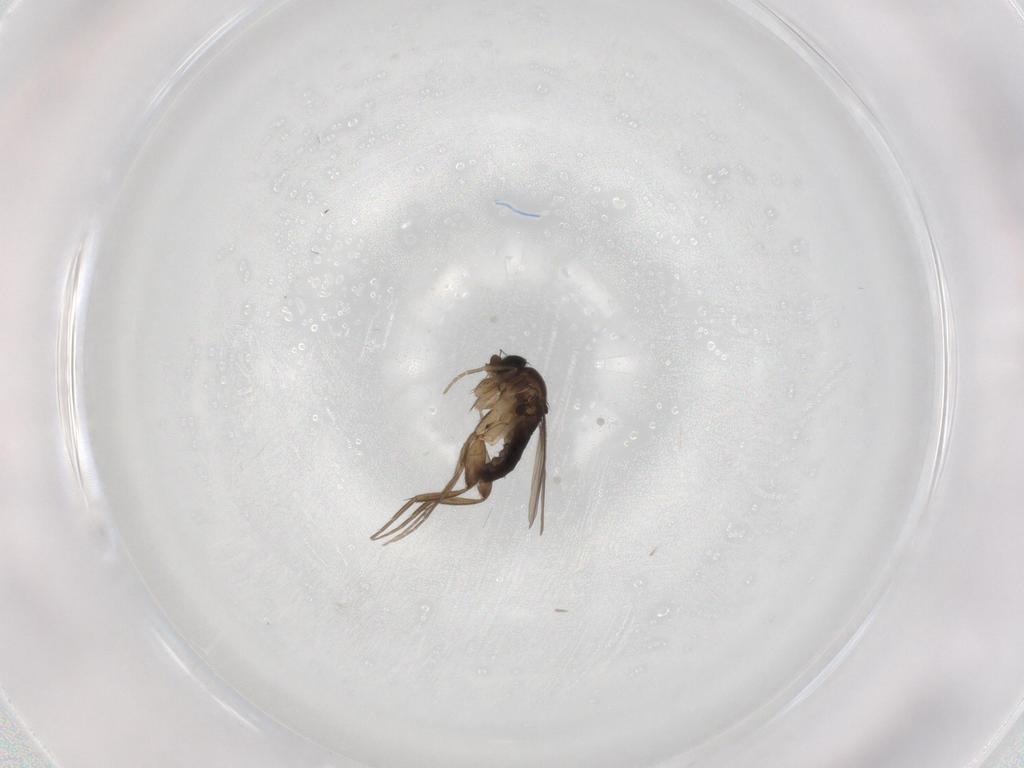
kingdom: Animalia
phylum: Arthropoda
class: Insecta
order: Diptera
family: Phoridae
